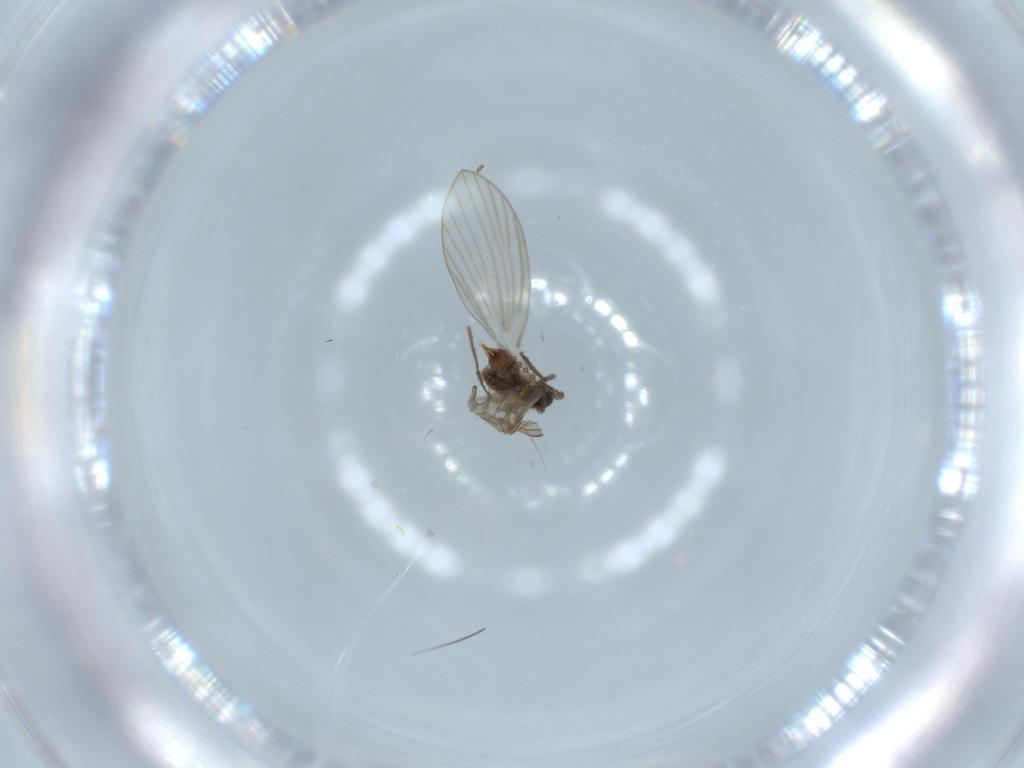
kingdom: Animalia
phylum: Arthropoda
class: Insecta
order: Diptera
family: Psychodidae
